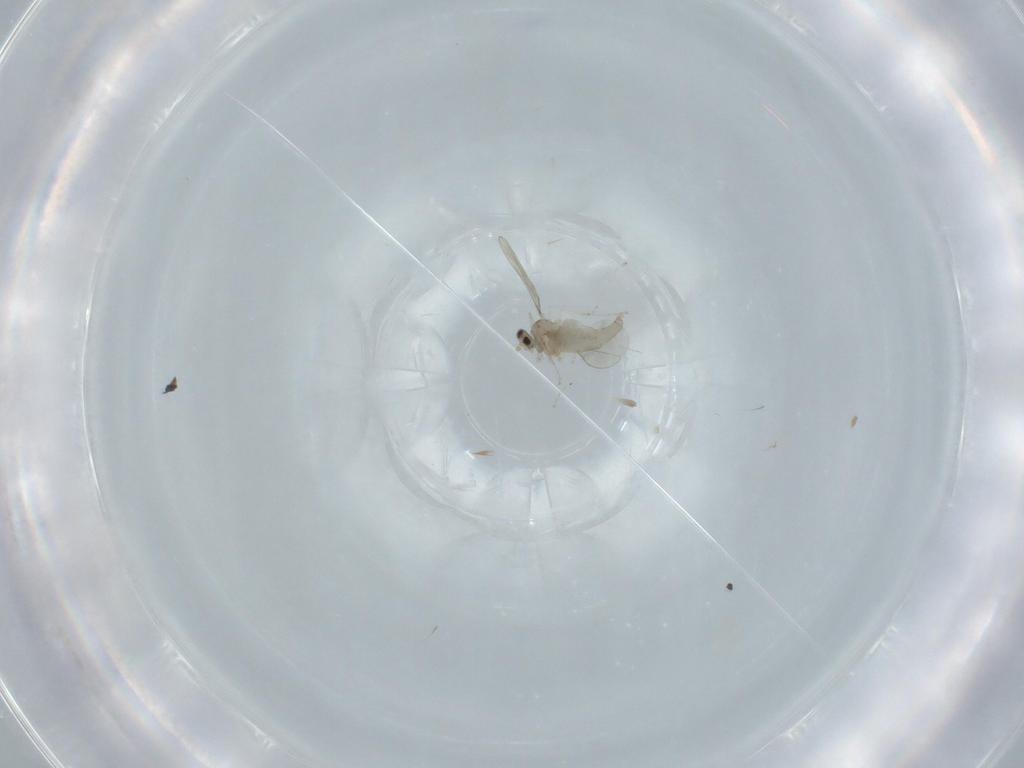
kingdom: Animalia
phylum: Arthropoda
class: Insecta
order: Diptera
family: Cecidomyiidae
